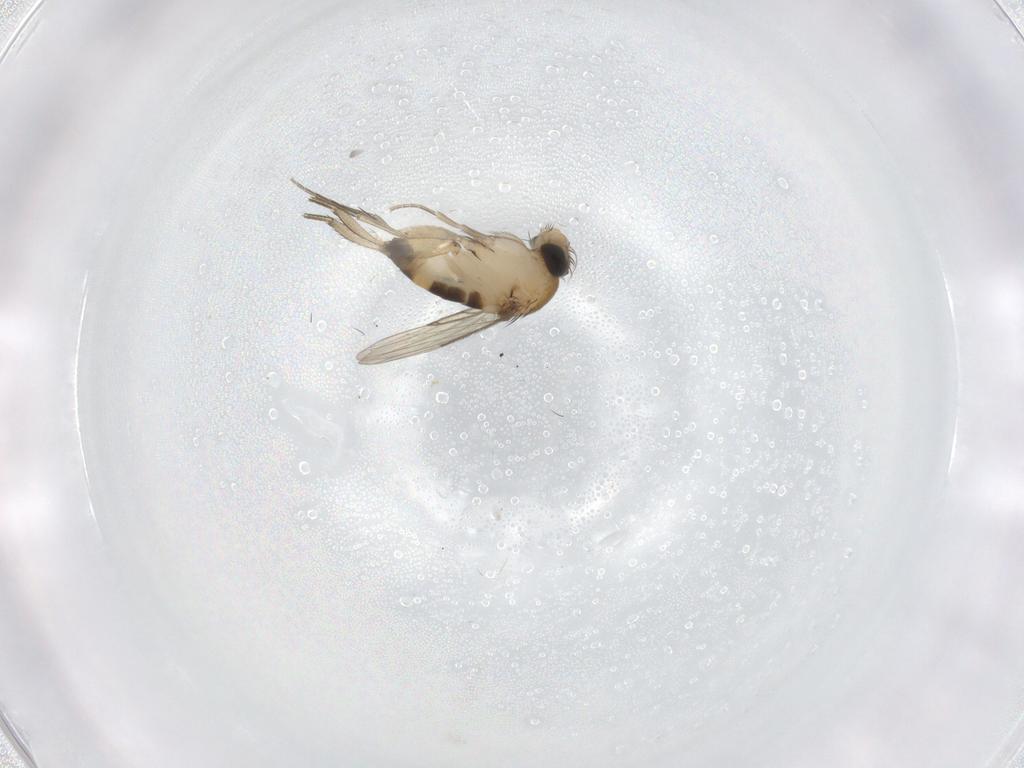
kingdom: Animalia
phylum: Arthropoda
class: Insecta
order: Diptera
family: Phoridae
